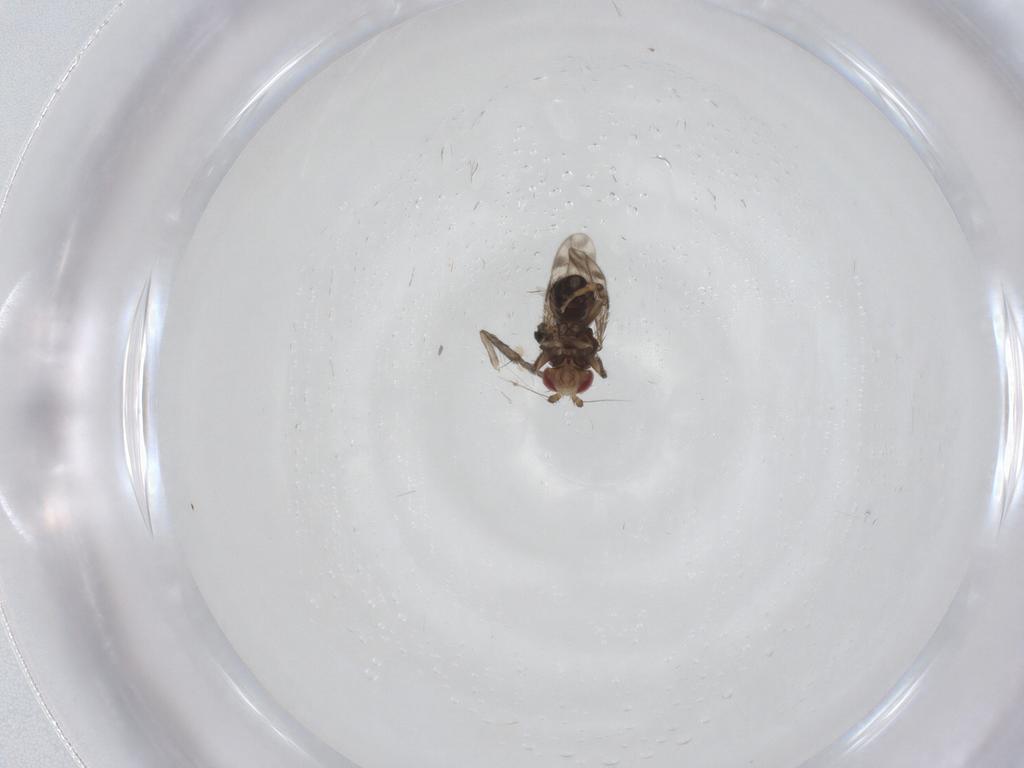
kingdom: Animalia
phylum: Arthropoda
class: Insecta
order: Diptera
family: Sphaeroceridae
